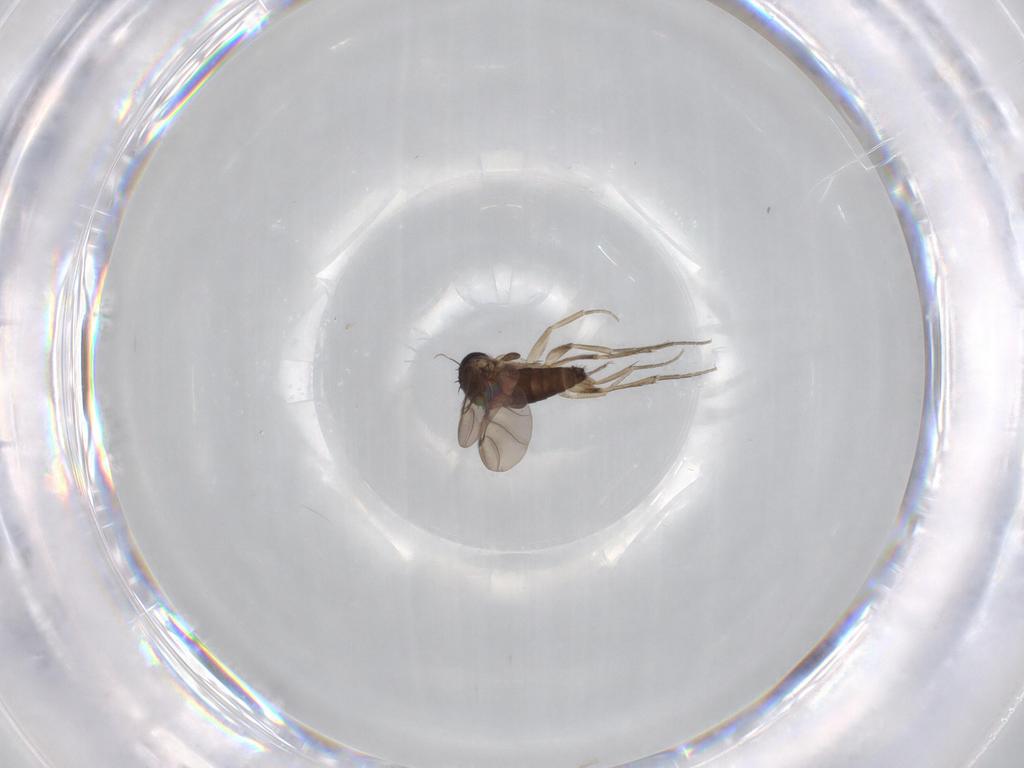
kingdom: Animalia
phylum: Arthropoda
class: Insecta
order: Diptera
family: Phoridae
